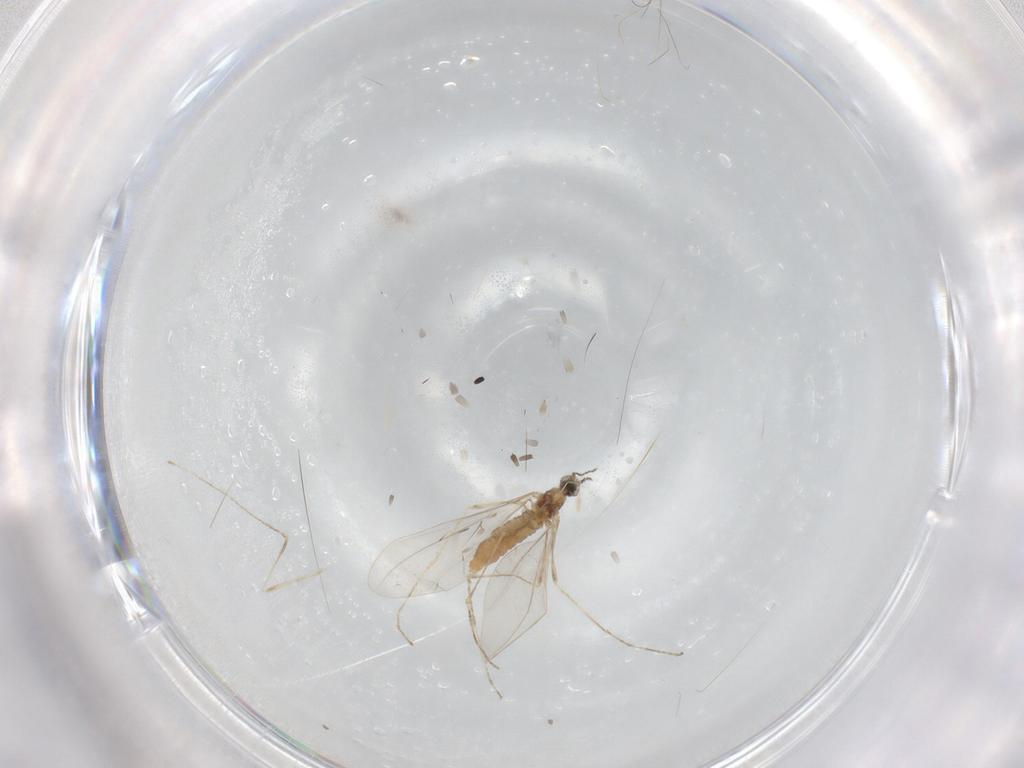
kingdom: Animalia
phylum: Arthropoda
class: Insecta
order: Diptera
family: Cecidomyiidae
